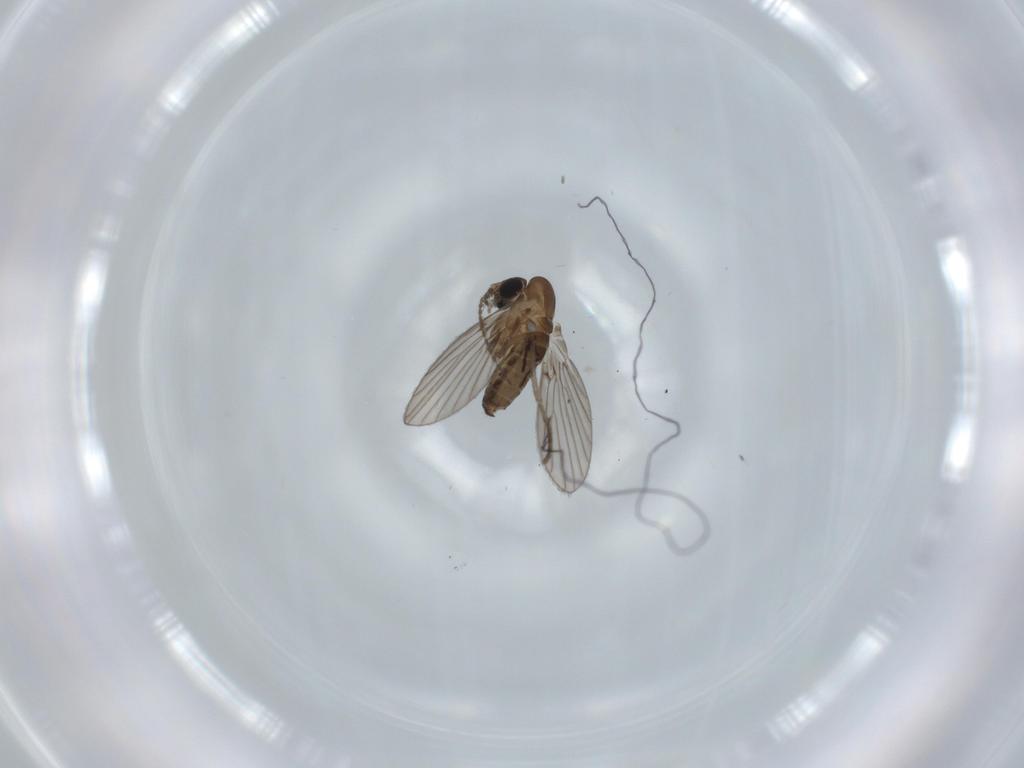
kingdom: Animalia
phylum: Arthropoda
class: Insecta
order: Diptera
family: Psychodidae
